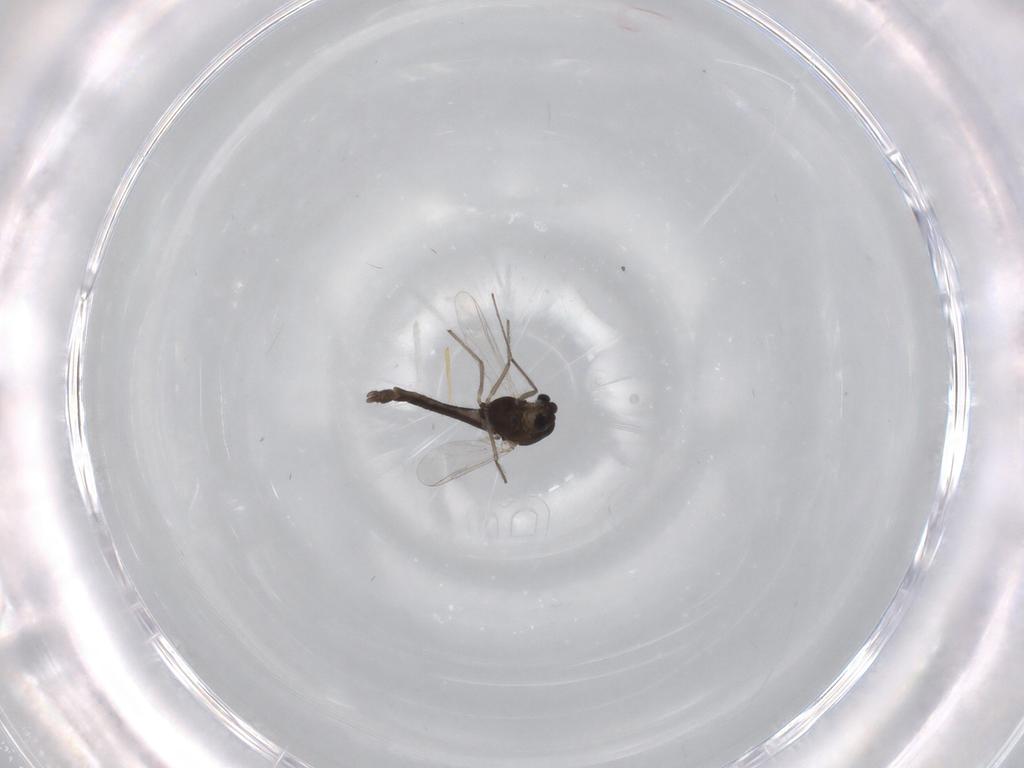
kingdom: Animalia
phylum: Arthropoda
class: Insecta
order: Diptera
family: Chironomidae
